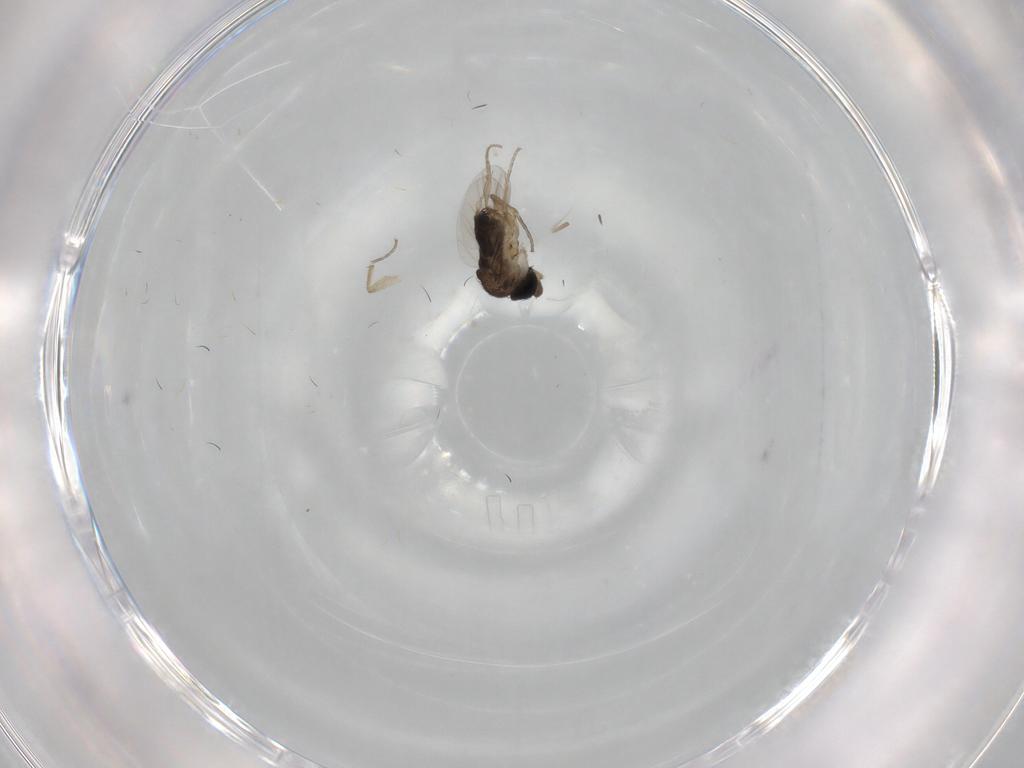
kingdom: Animalia
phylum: Arthropoda
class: Insecta
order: Diptera
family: Phoridae
